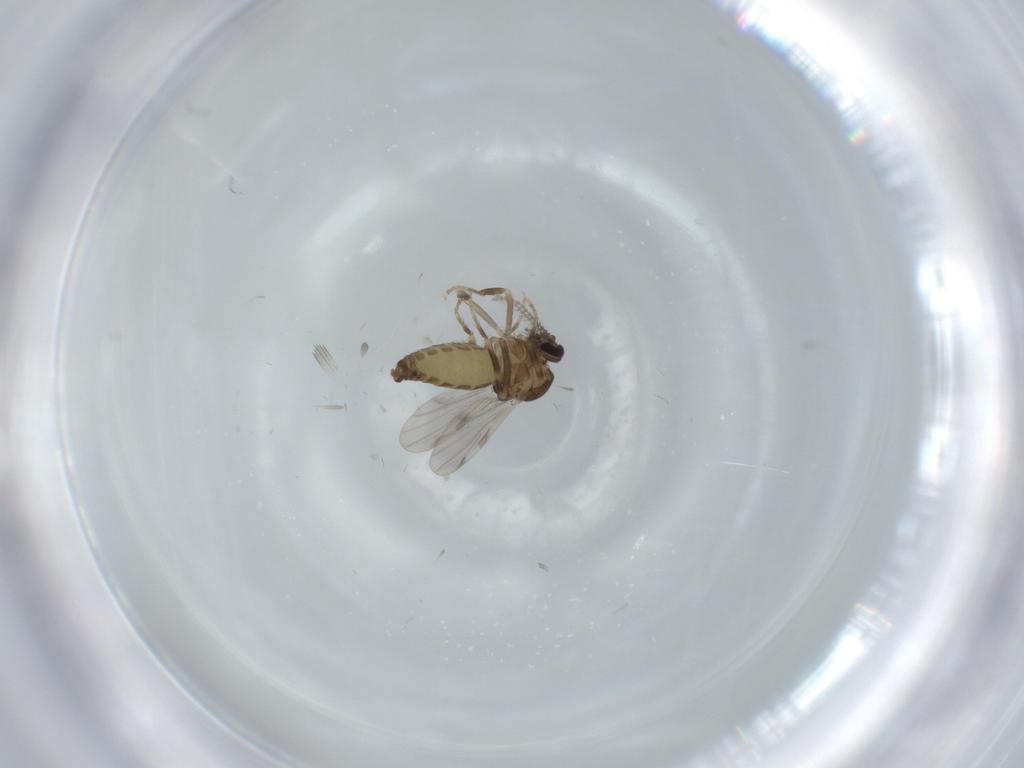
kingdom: Animalia
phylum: Arthropoda
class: Insecta
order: Diptera
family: Ceratopogonidae
